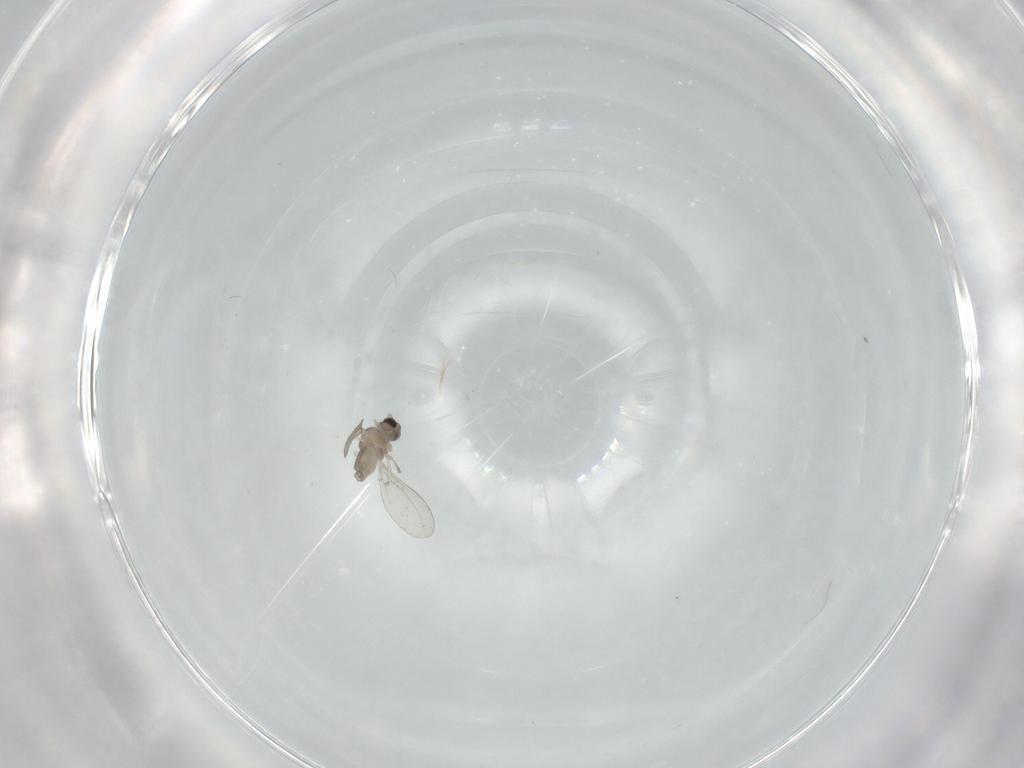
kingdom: Animalia
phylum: Arthropoda
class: Insecta
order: Diptera
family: Cecidomyiidae
